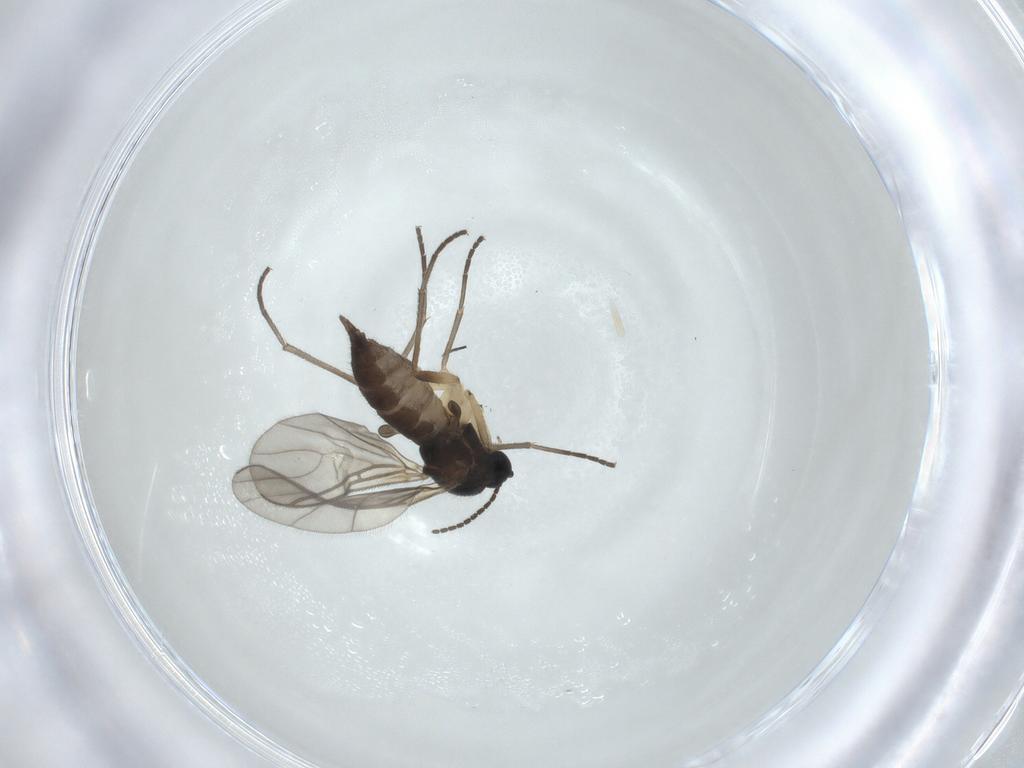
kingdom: Animalia
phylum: Arthropoda
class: Insecta
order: Diptera
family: Sciaridae
